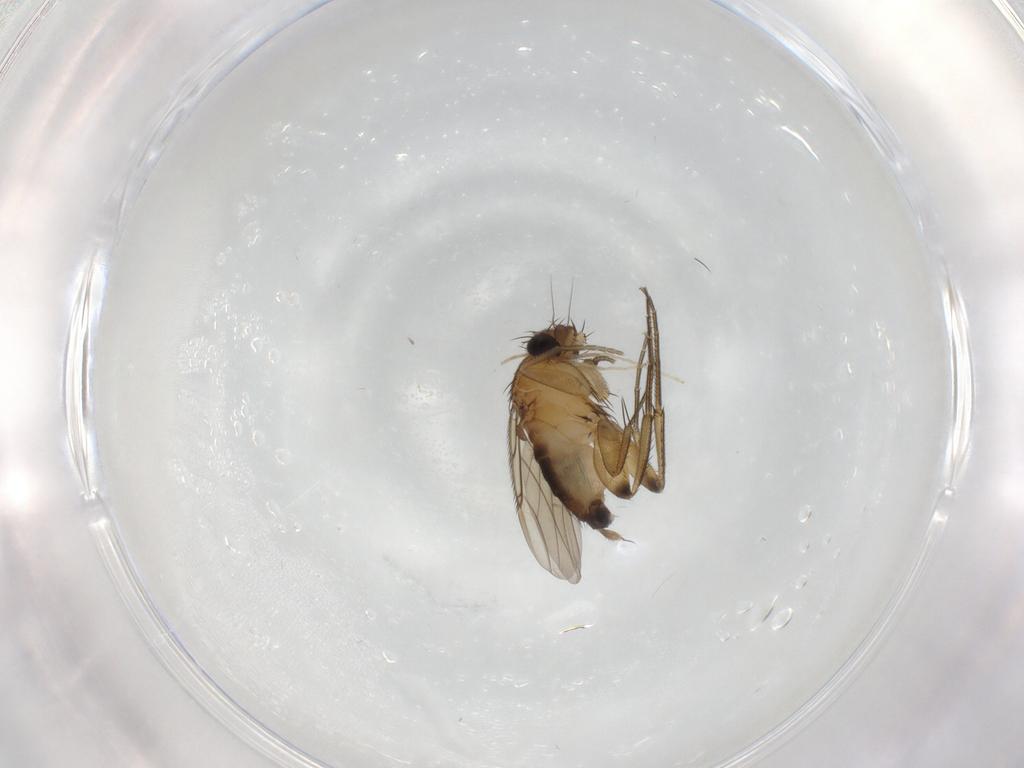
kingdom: Animalia
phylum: Arthropoda
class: Insecta
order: Diptera
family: Phoridae
